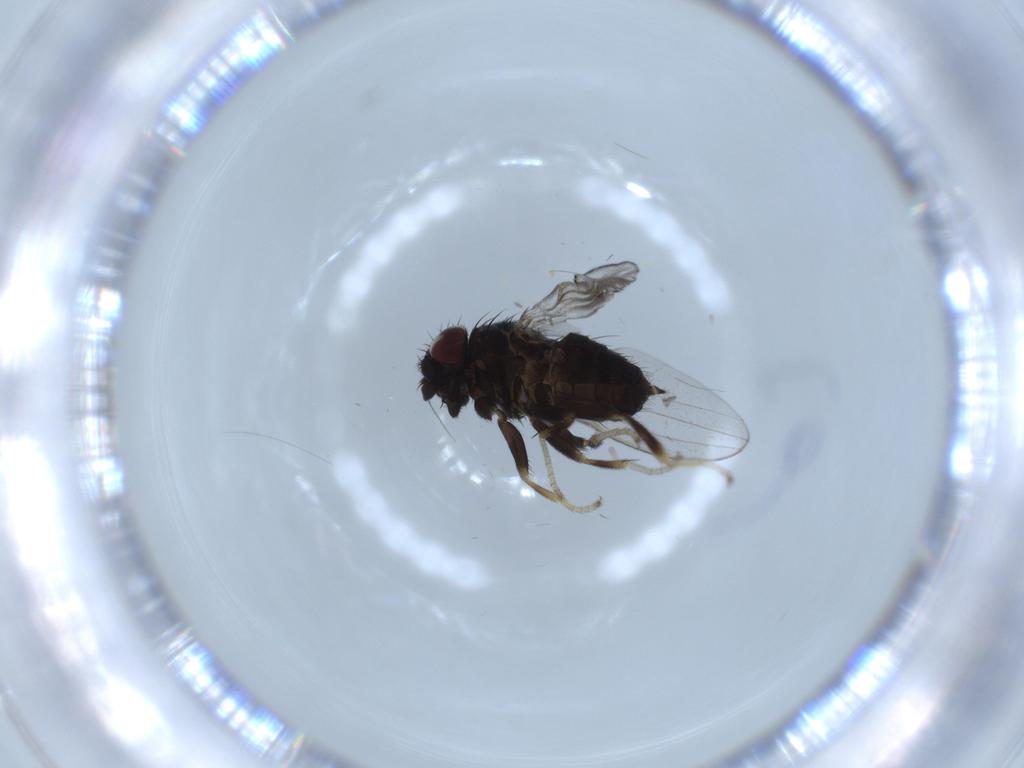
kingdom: Animalia
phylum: Arthropoda
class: Insecta
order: Diptera
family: Milichiidae
